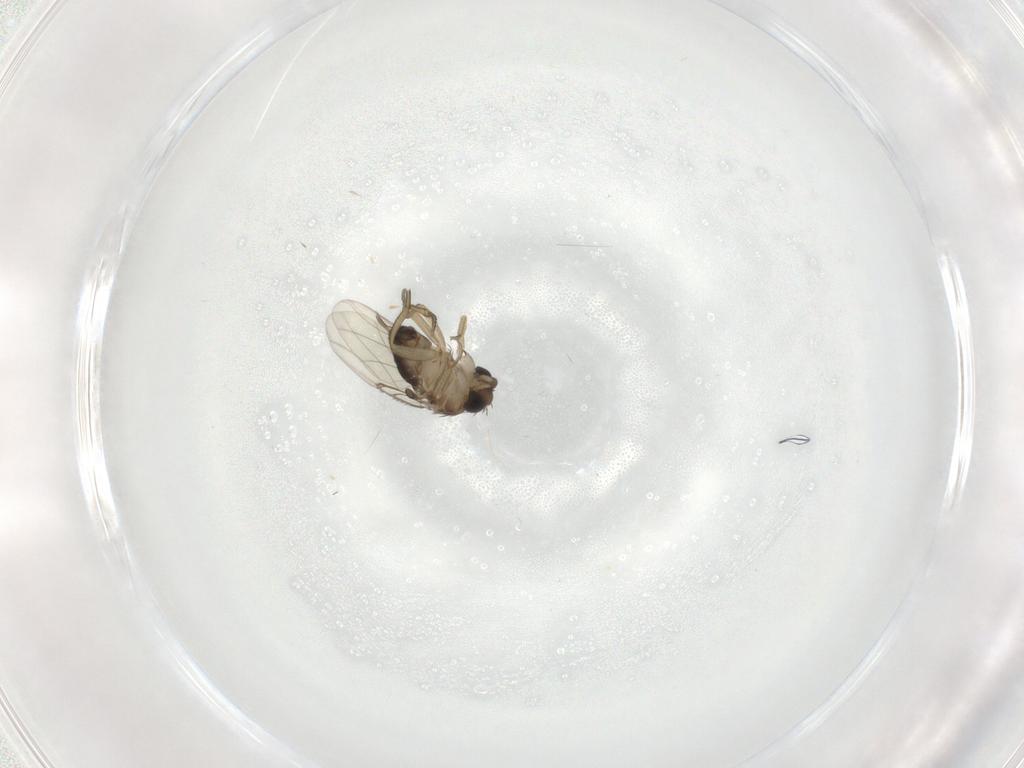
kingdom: Animalia
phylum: Arthropoda
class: Insecta
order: Diptera
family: Phoridae
